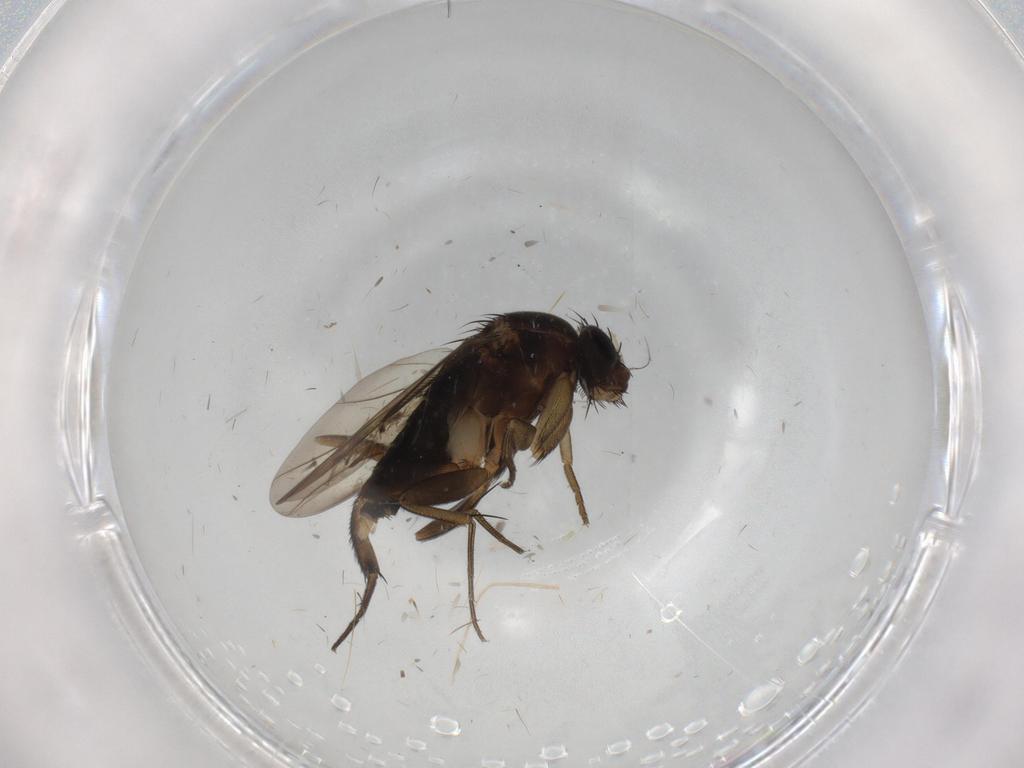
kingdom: Animalia
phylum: Arthropoda
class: Insecta
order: Diptera
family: Phoridae
